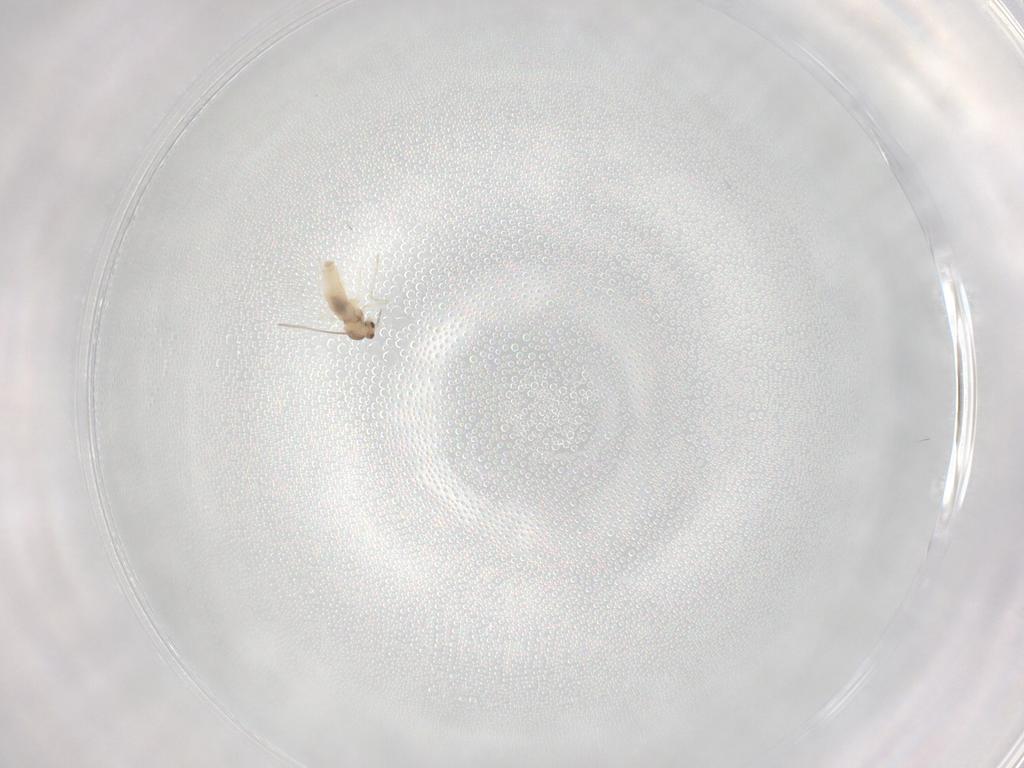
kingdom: Animalia
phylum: Arthropoda
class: Insecta
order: Diptera
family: Cecidomyiidae
